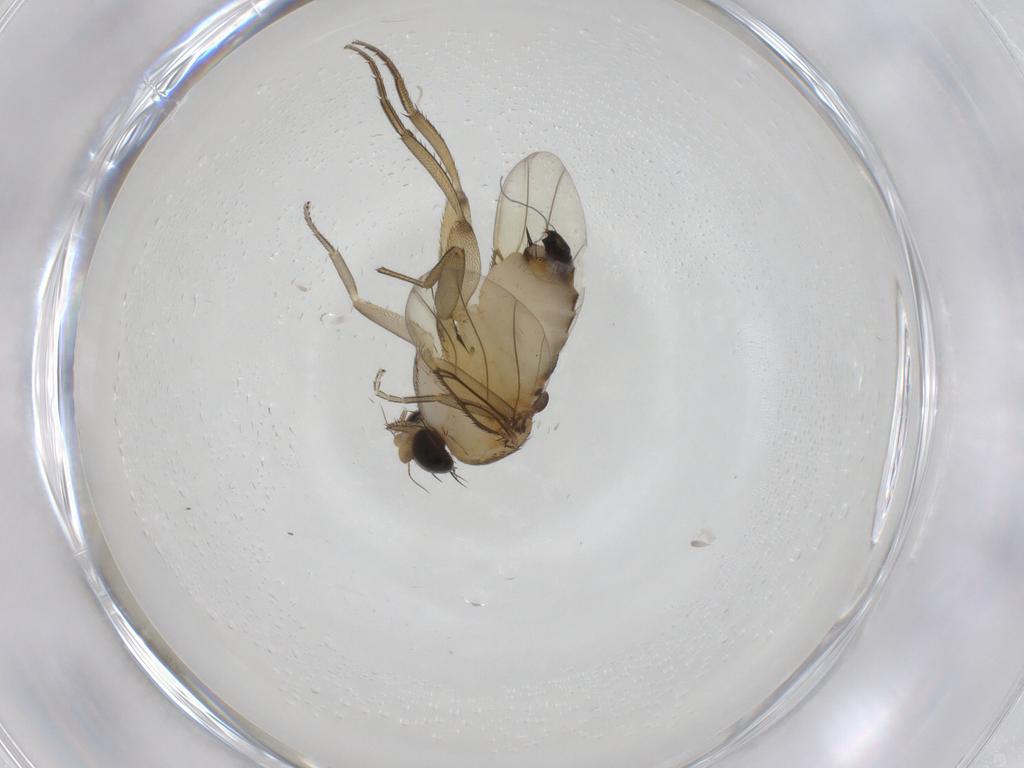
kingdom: Animalia
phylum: Arthropoda
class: Insecta
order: Diptera
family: Phoridae
